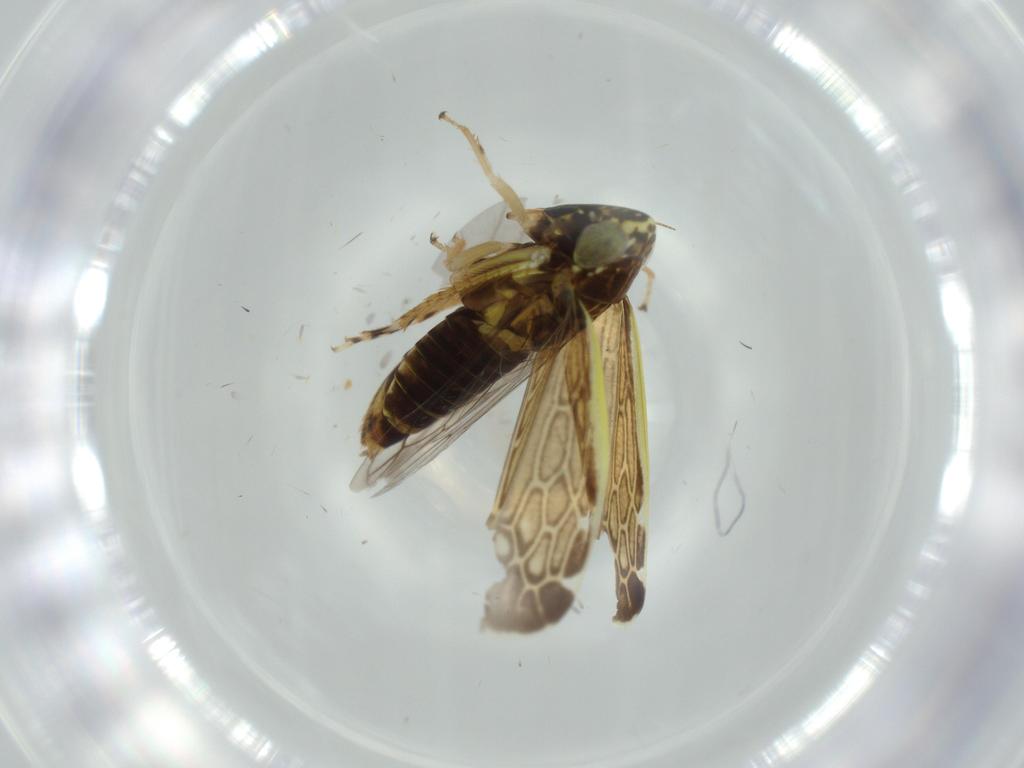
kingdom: Animalia
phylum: Arthropoda
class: Insecta
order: Hemiptera
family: Cicadellidae
